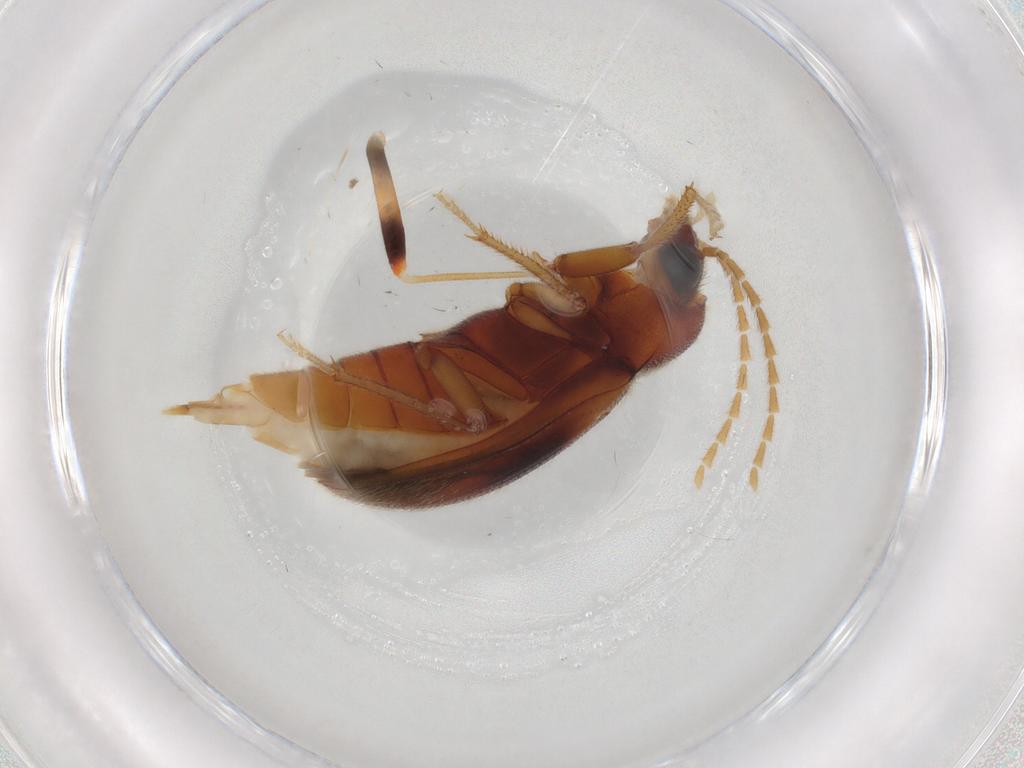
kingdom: Animalia
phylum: Arthropoda
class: Insecta
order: Coleoptera
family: Ptilodactylidae
